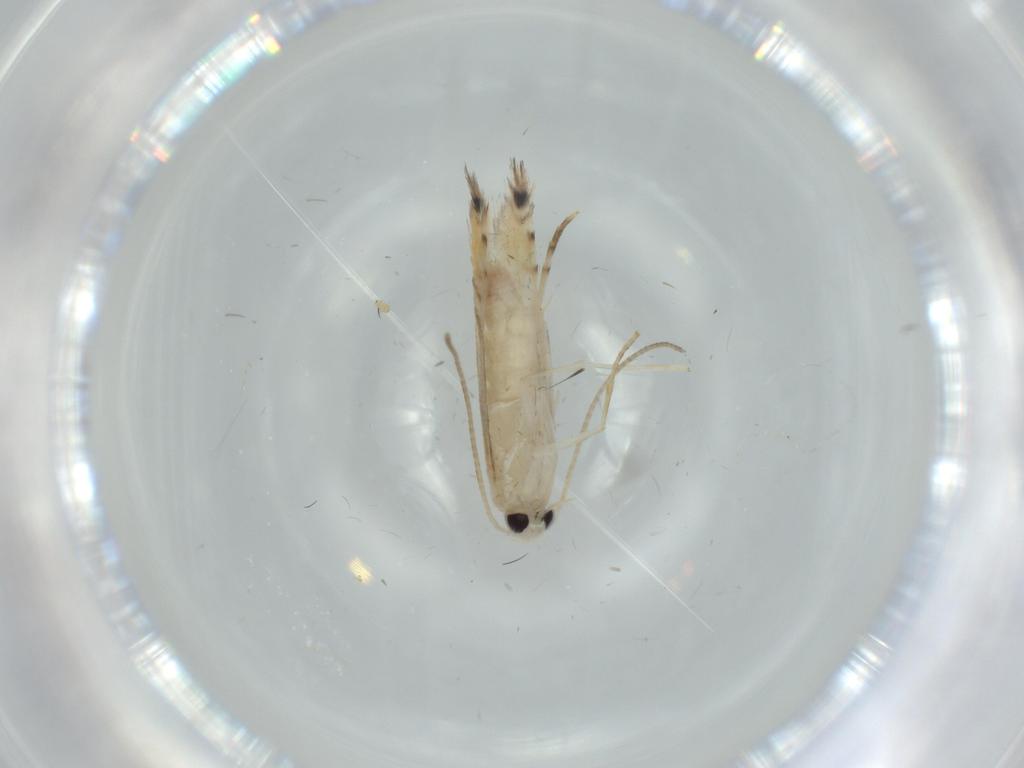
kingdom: Animalia
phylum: Arthropoda
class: Insecta
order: Lepidoptera
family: Gracillariidae
